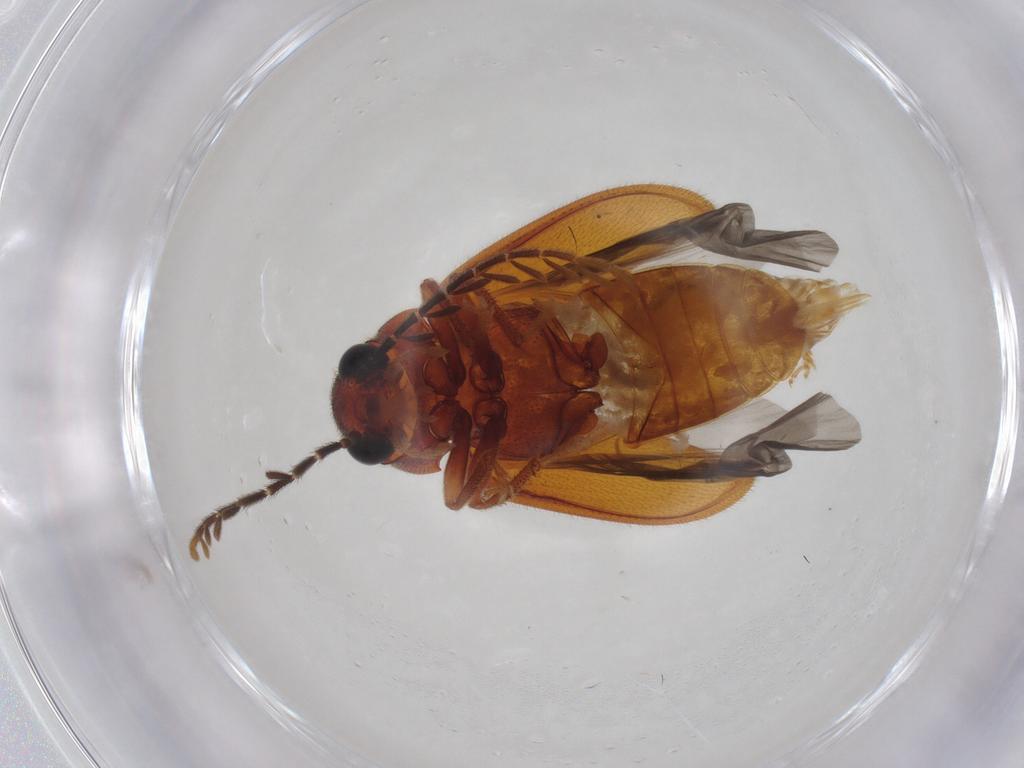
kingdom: Animalia
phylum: Arthropoda
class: Insecta
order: Coleoptera
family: Ptilodactylidae
